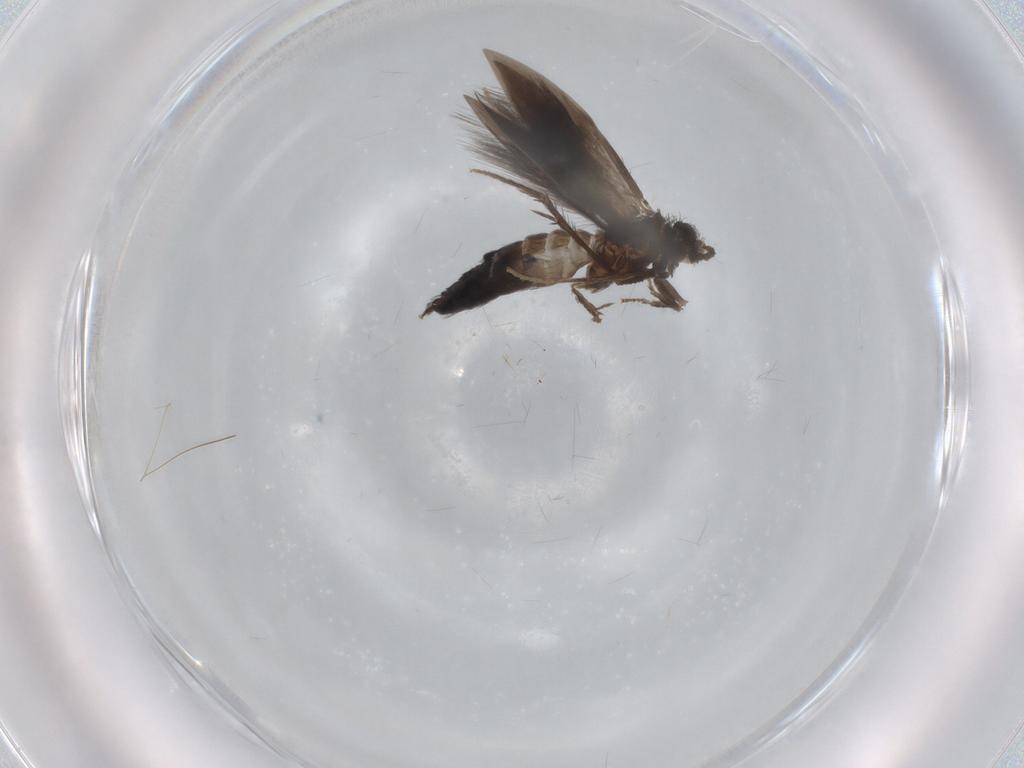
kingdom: Animalia
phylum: Arthropoda
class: Insecta
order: Trichoptera
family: Hydroptilidae
